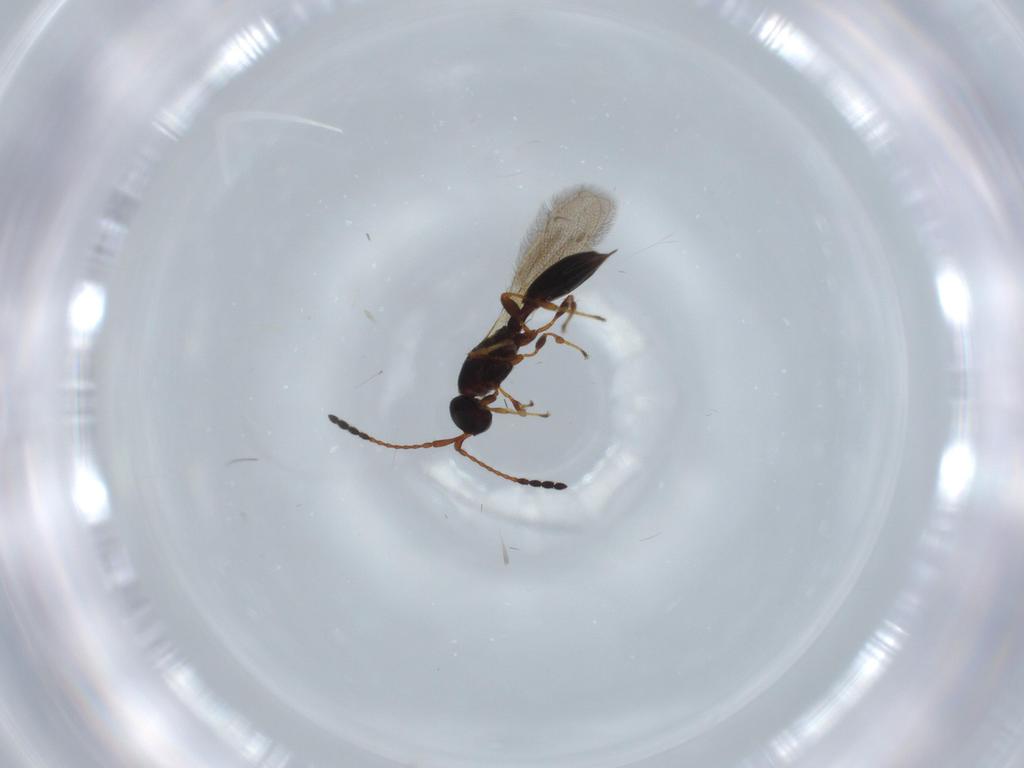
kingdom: Animalia
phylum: Arthropoda
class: Insecta
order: Hymenoptera
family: Diapriidae
